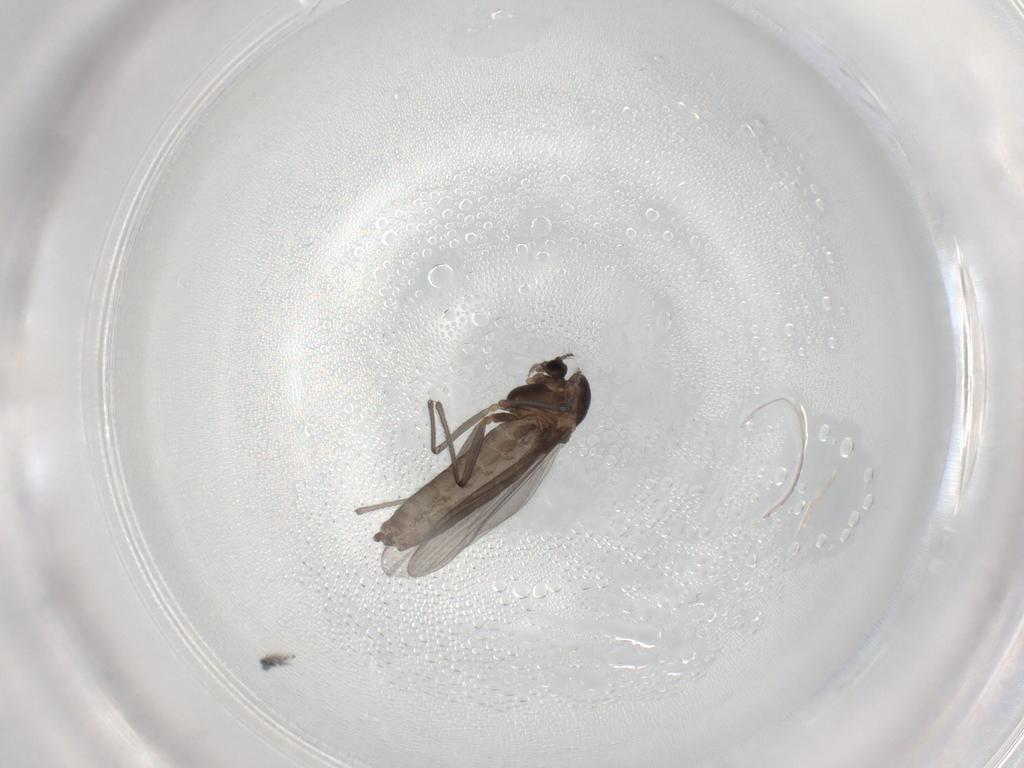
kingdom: Animalia
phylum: Arthropoda
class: Insecta
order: Diptera
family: Chironomidae
